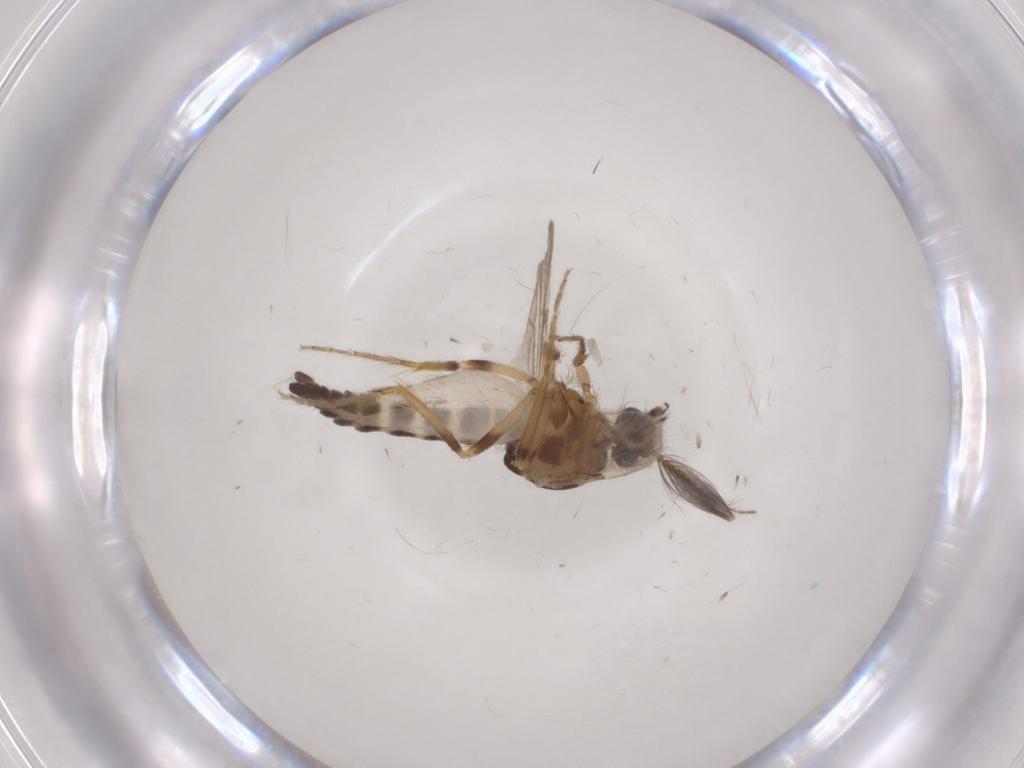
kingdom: Animalia
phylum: Arthropoda
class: Insecta
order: Diptera
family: Ceratopogonidae
